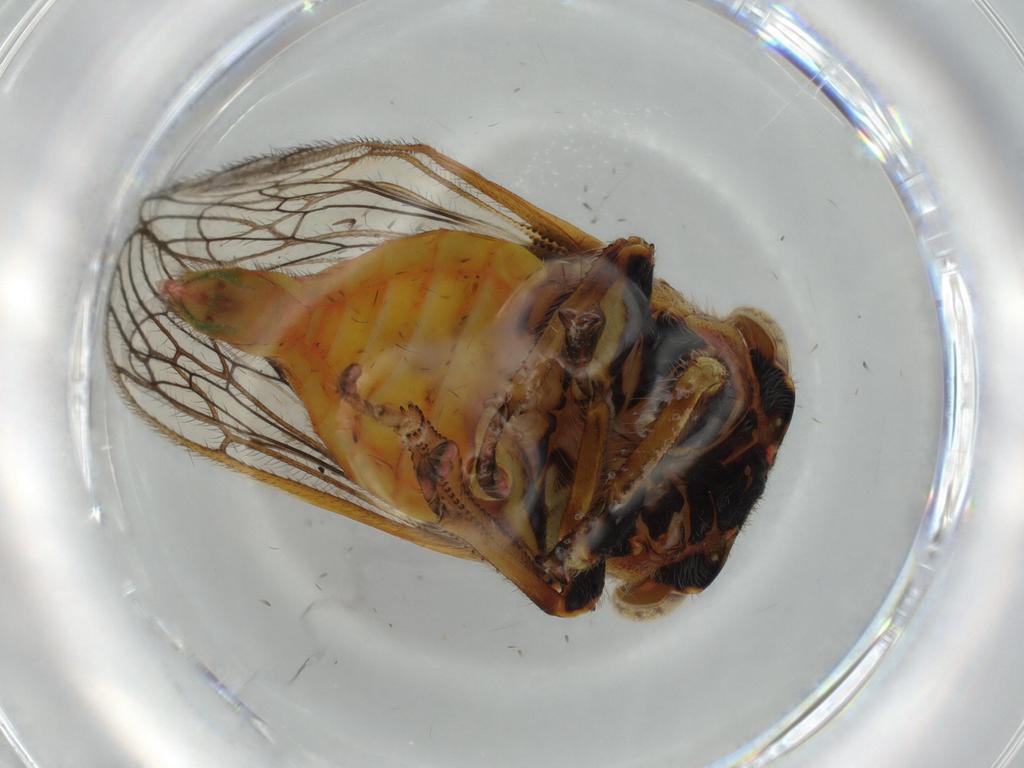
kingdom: Animalia
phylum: Arthropoda
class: Insecta
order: Hemiptera
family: Membracidae
